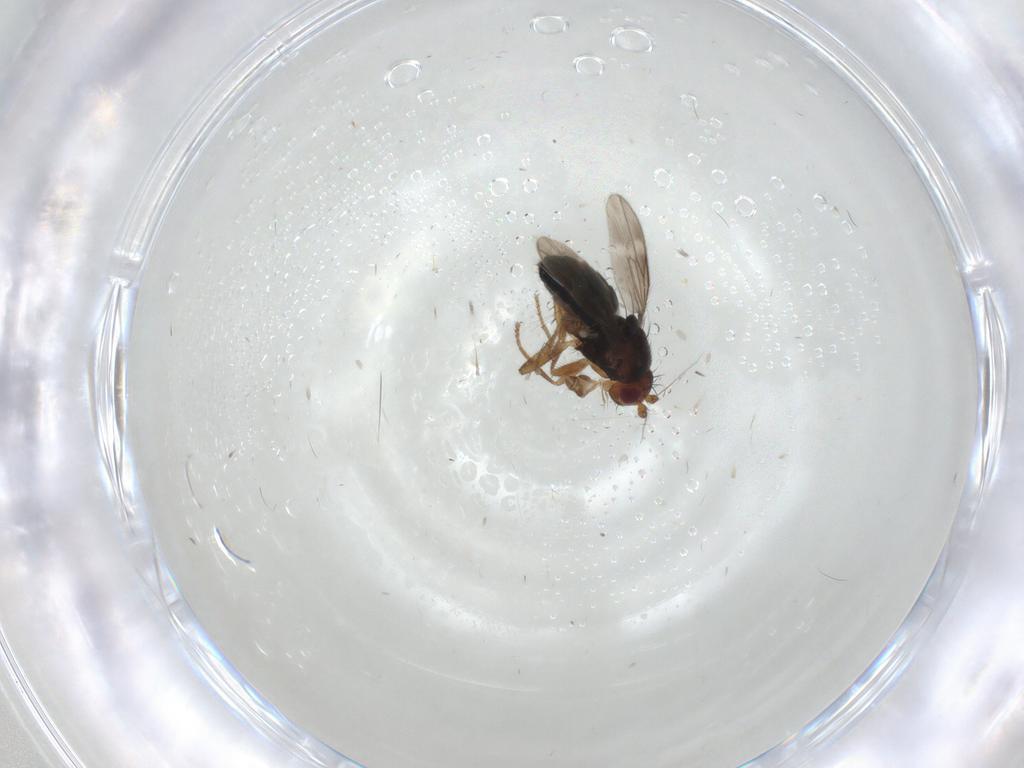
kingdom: Animalia
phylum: Arthropoda
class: Insecta
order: Diptera
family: Sphaeroceridae
